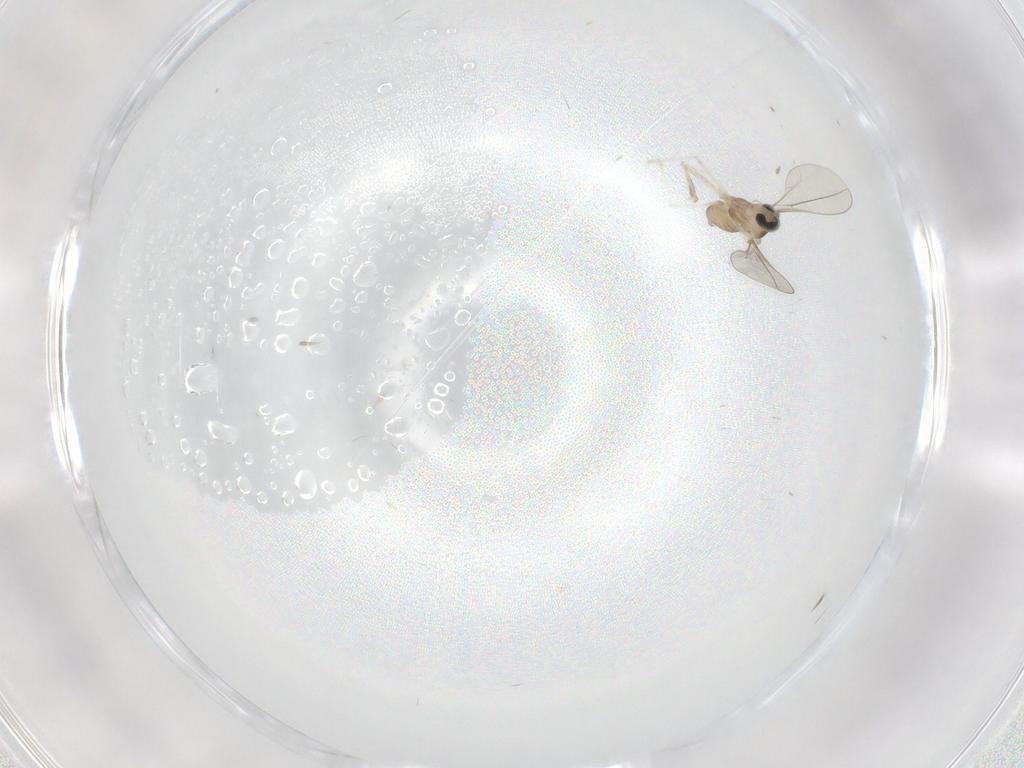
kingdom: Animalia
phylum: Arthropoda
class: Insecta
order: Diptera
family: Cecidomyiidae
